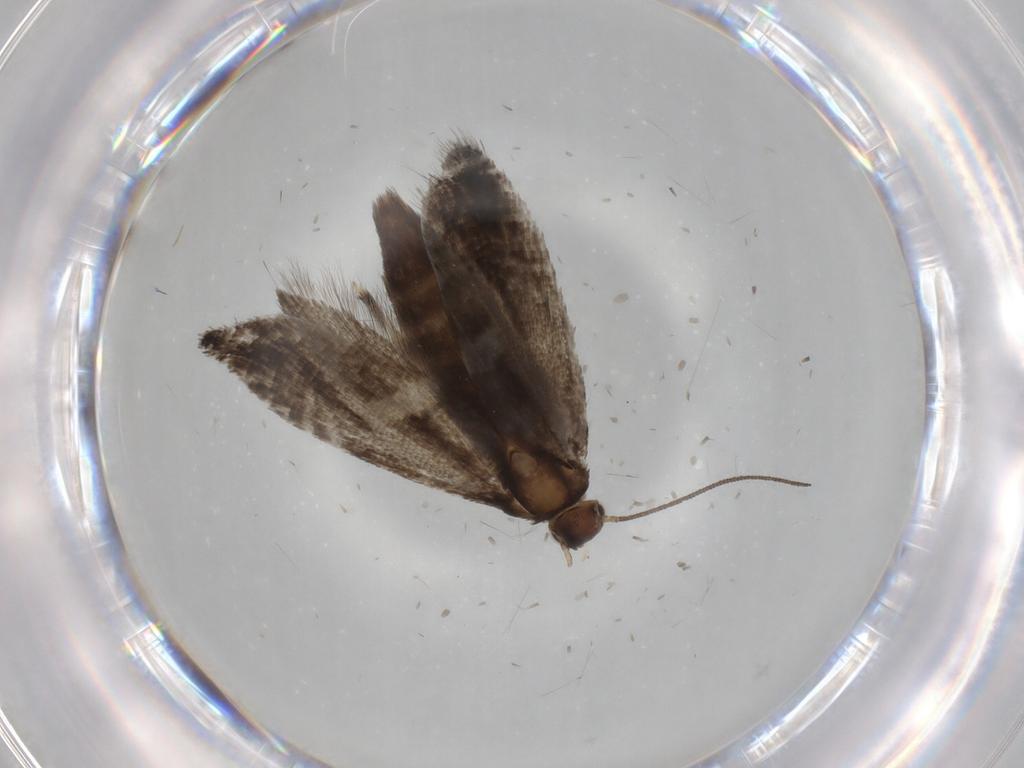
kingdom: Animalia
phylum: Arthropoda
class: Insecta
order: Lepidoptera
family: Glyphipterigidae
